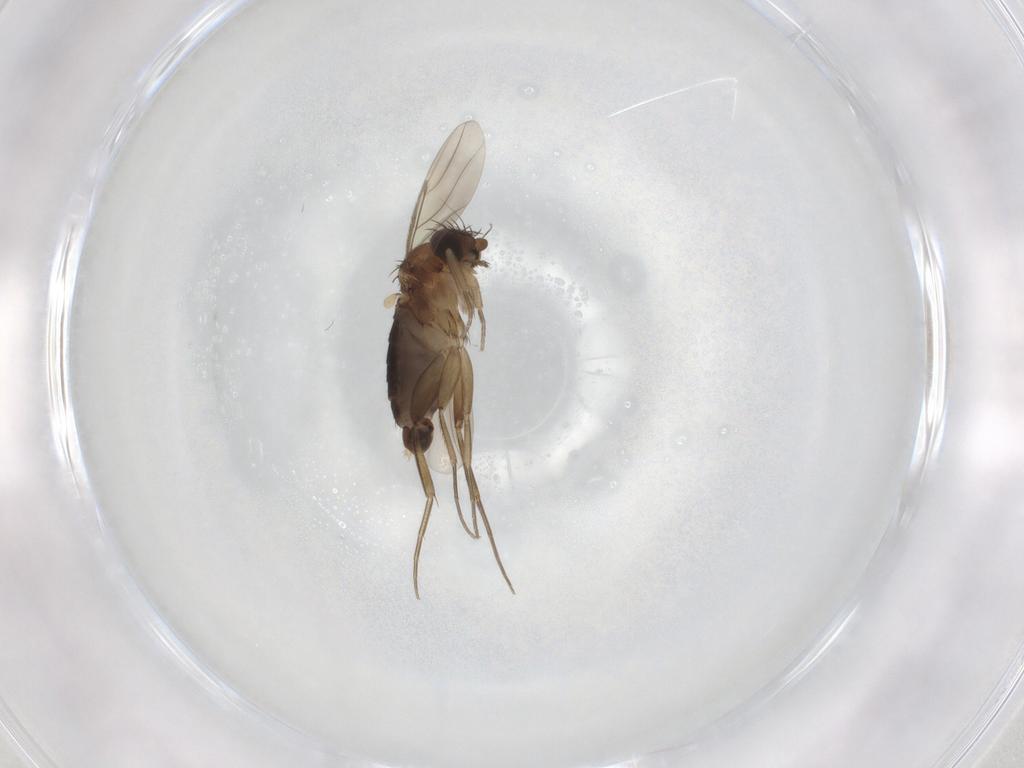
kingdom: Animalia
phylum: Arthropoda
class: Insecta
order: Diptera
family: Phoridae
